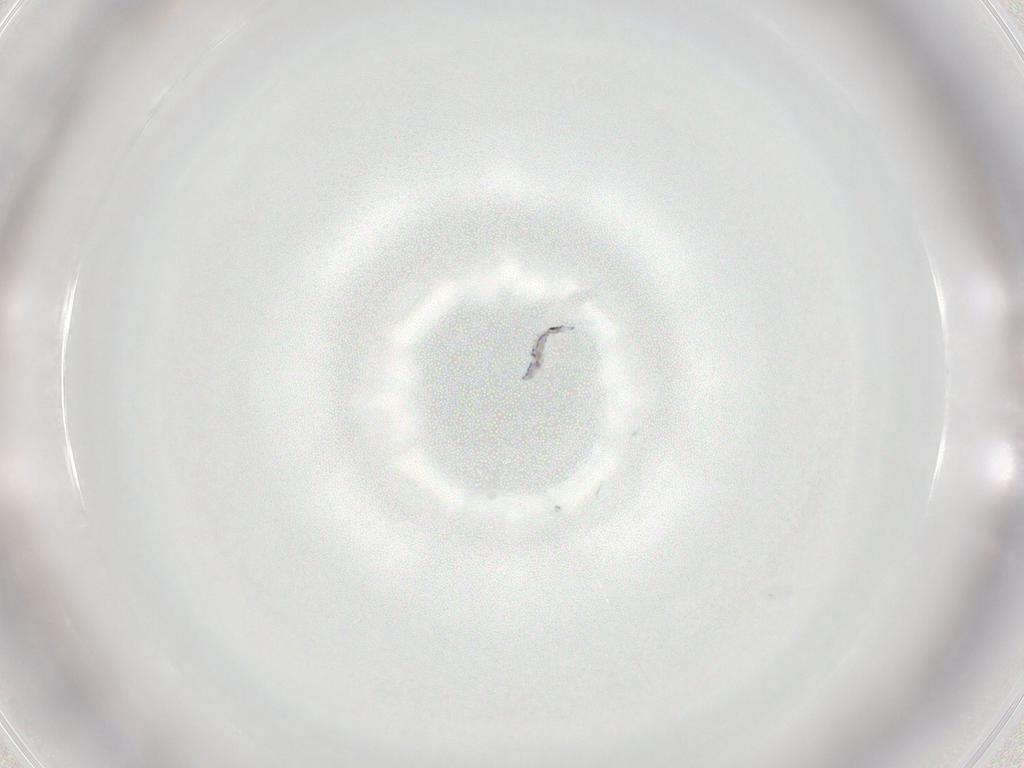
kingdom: Animalia
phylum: Arthropoda
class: Collembola
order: Entomobryomorpha
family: Entomobryidae
